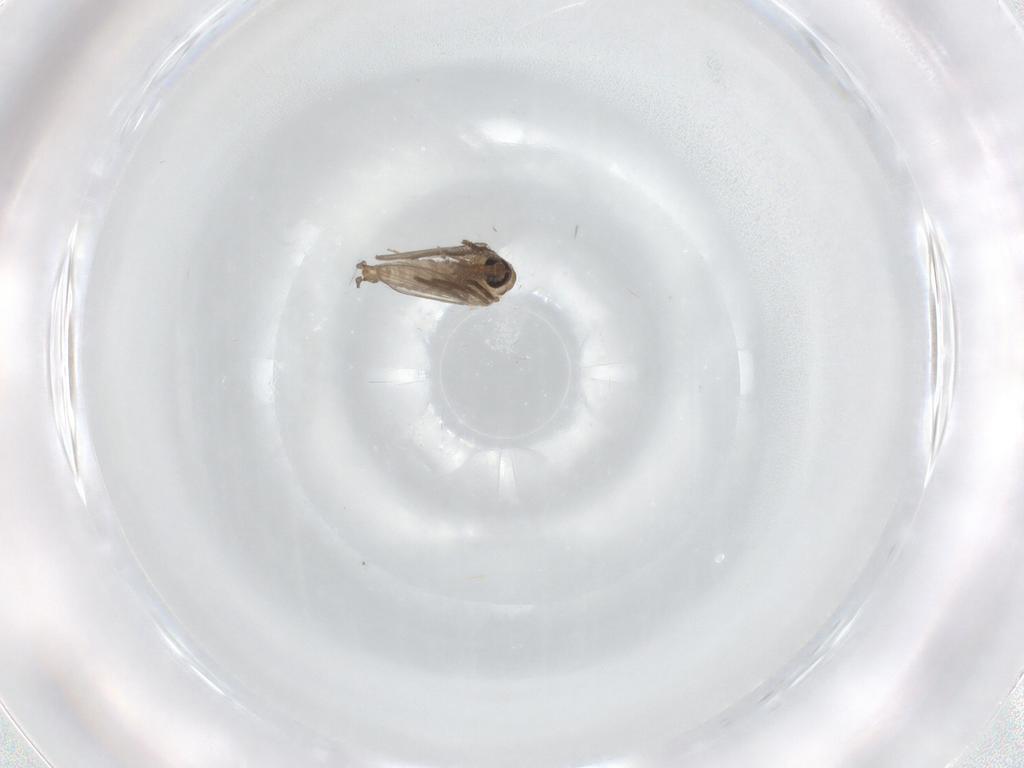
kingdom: Animalia
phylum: Arthropoda
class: Insecta
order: Diptera
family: Psychodidae
